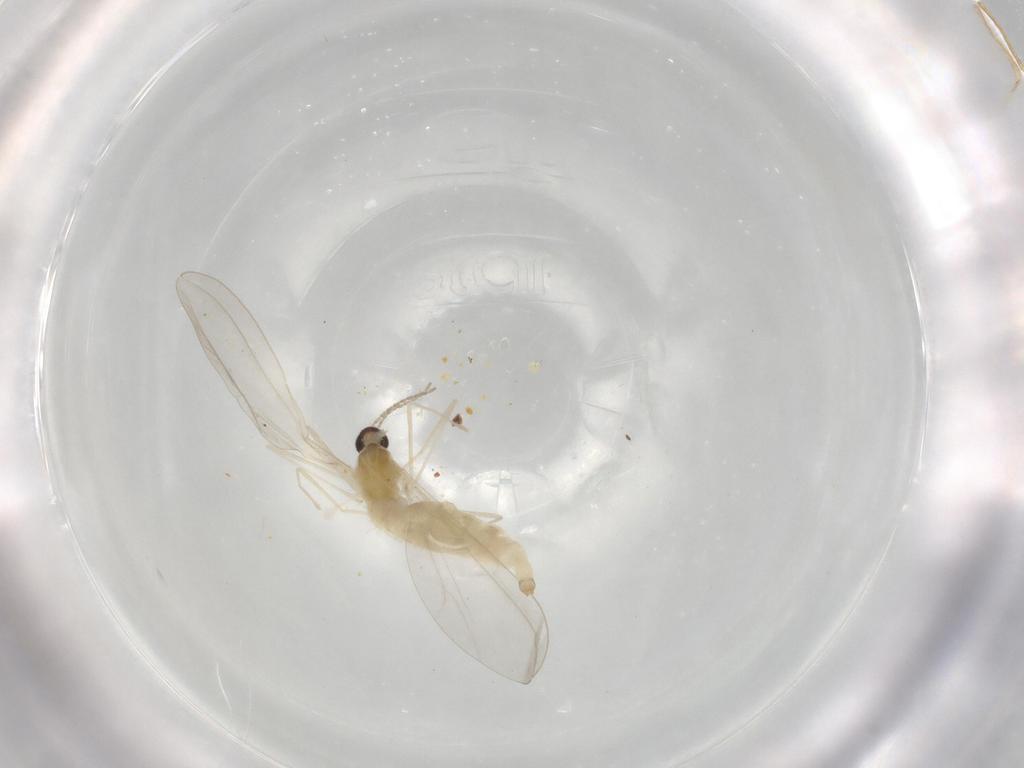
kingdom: Animalia
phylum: Arthropoda
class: Insecta
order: Diptera
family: Cecidomyiidae
